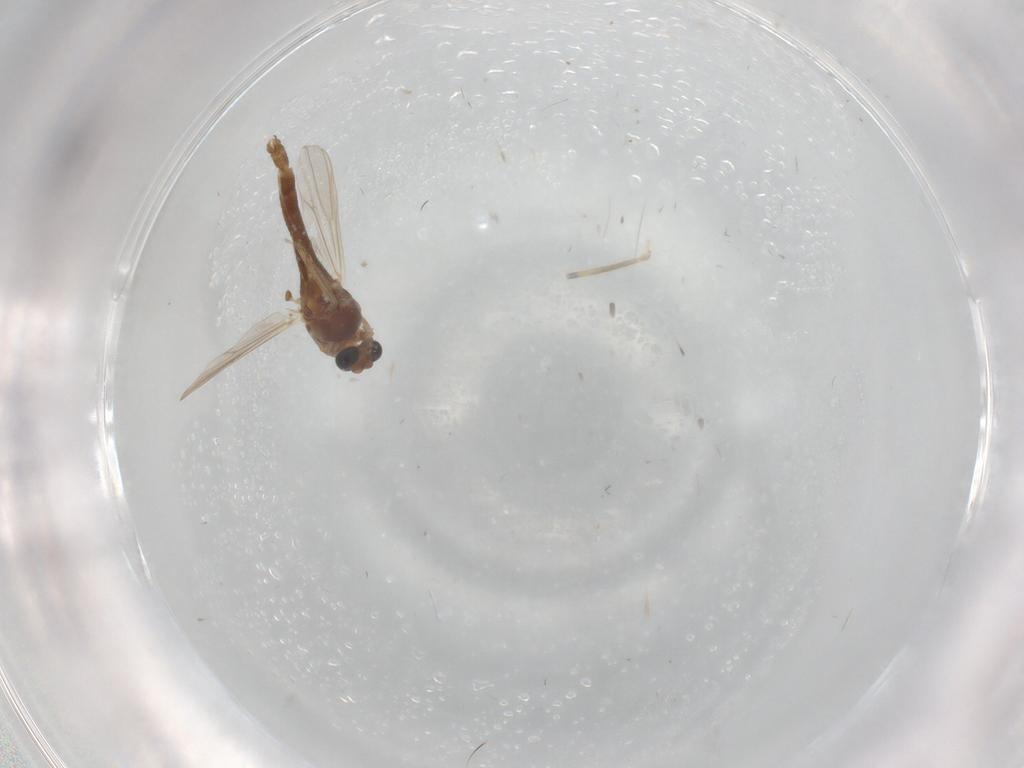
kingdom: Animalia
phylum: Arthropoda
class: Insecta
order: Diptera
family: Chironomidae
